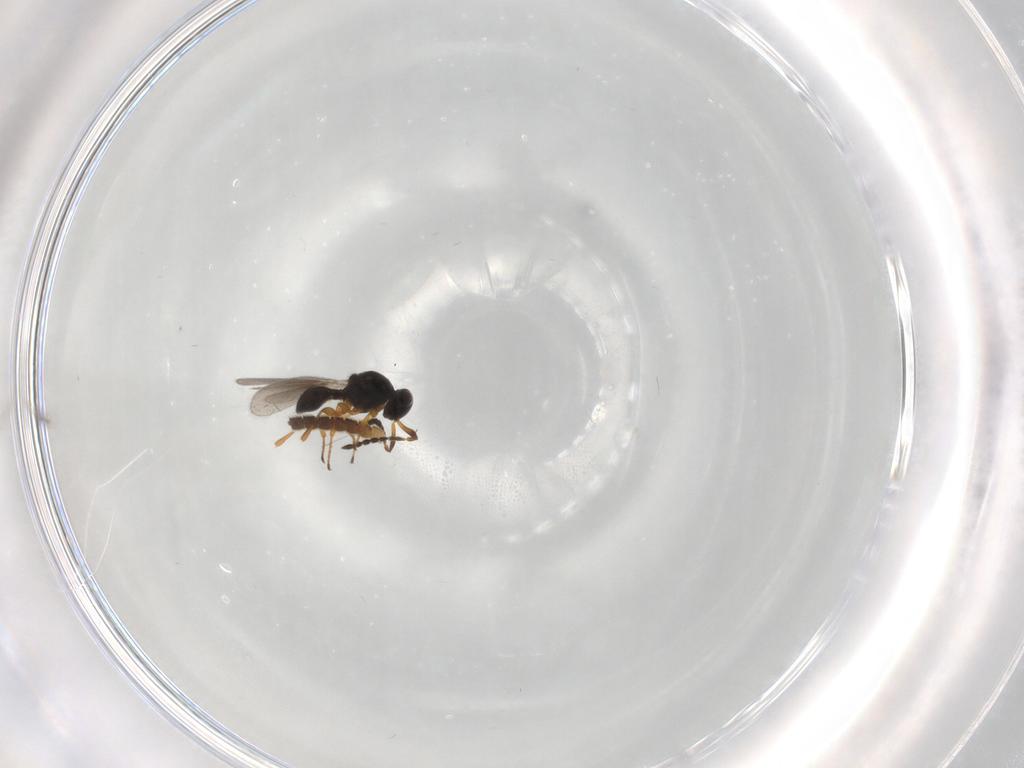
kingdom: Animalia
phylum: Arthropoda
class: Insecta
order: Hymenoptera
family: Platygastridae
